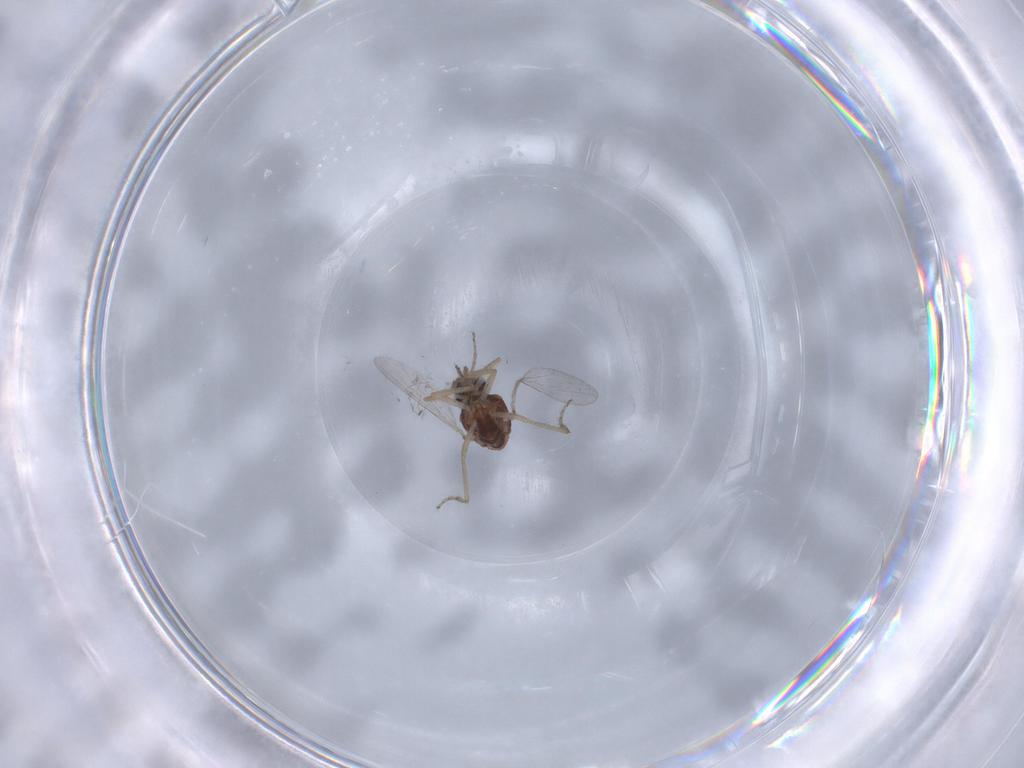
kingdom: Animalia
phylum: Arthropoda
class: Insecta
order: Diptera
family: Ceratopogonidae
